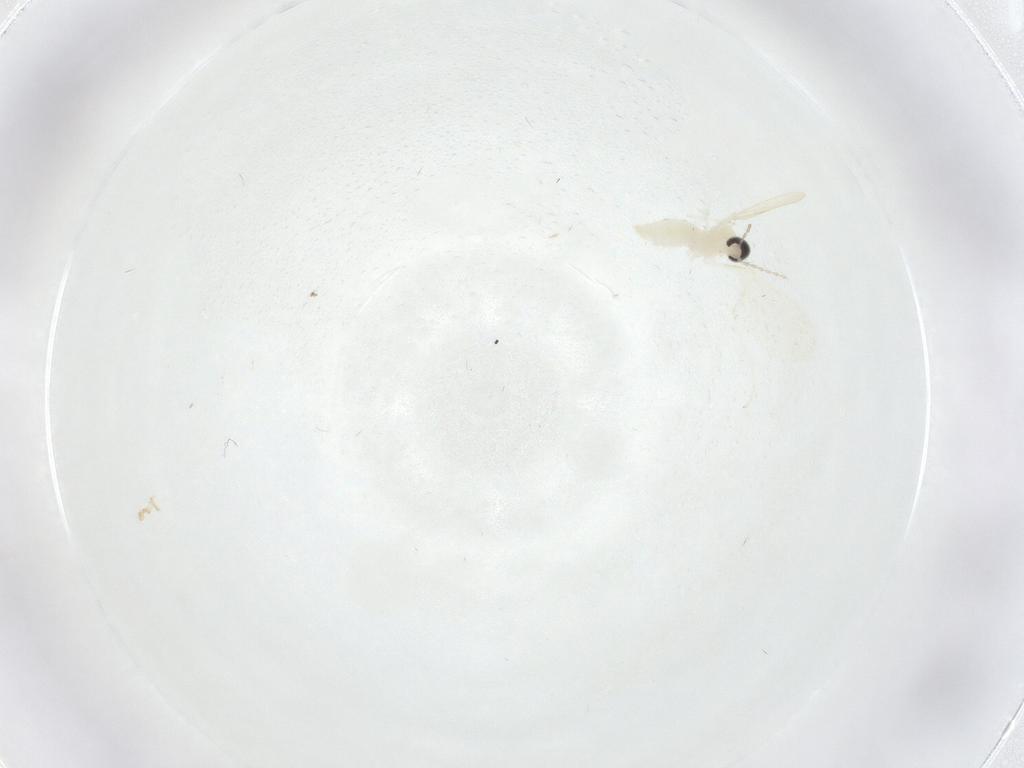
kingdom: Animalia
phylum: Arthropoda
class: Insecta
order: Diptera
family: Cecidomyiidae
